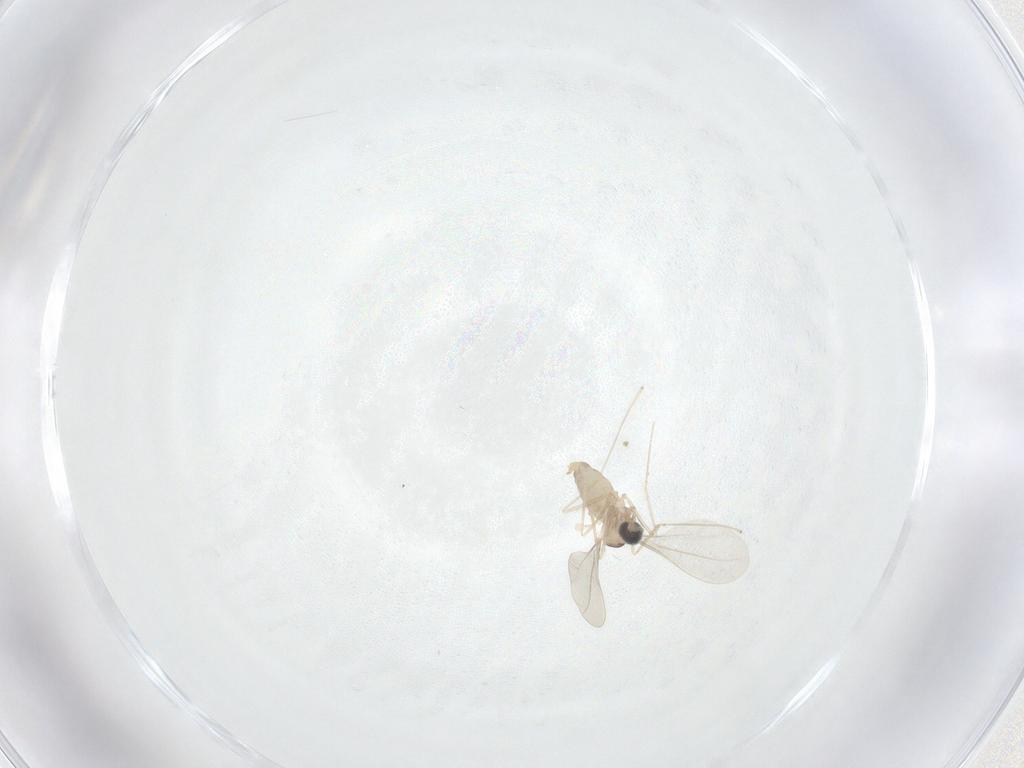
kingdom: Animalia
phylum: Arthropoda
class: Insecta
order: Diptera
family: Cecidomyiidae
